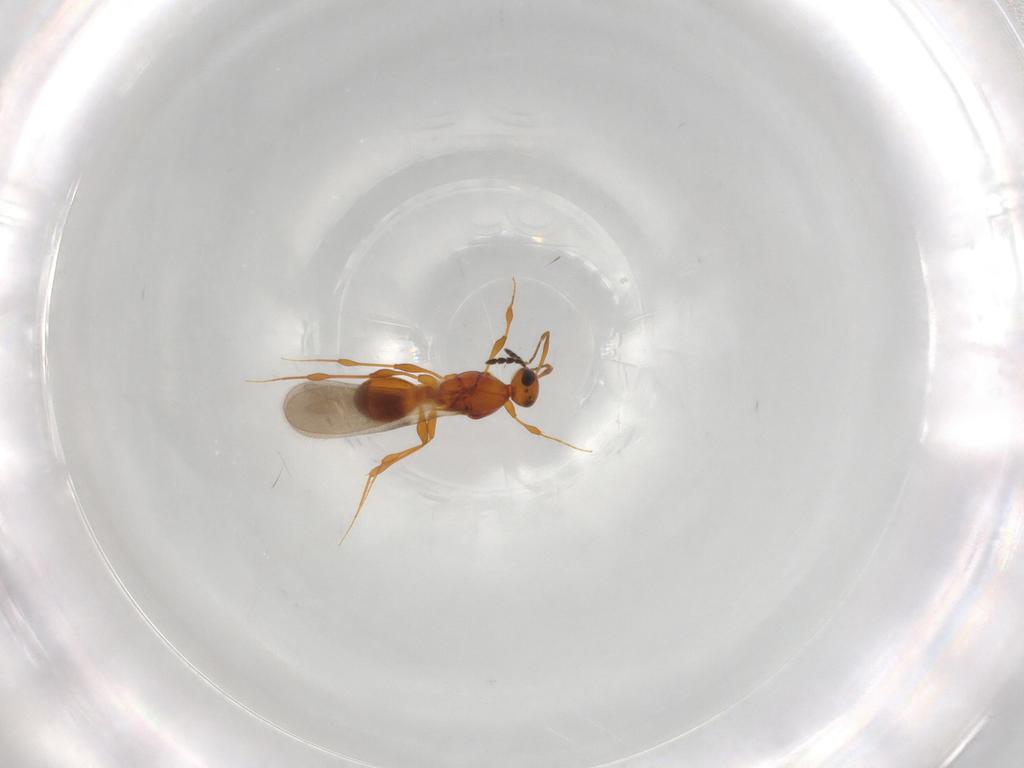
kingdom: Animalia
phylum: Arthropoda
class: Insecta
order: Hymenoptera
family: Platygastridae
